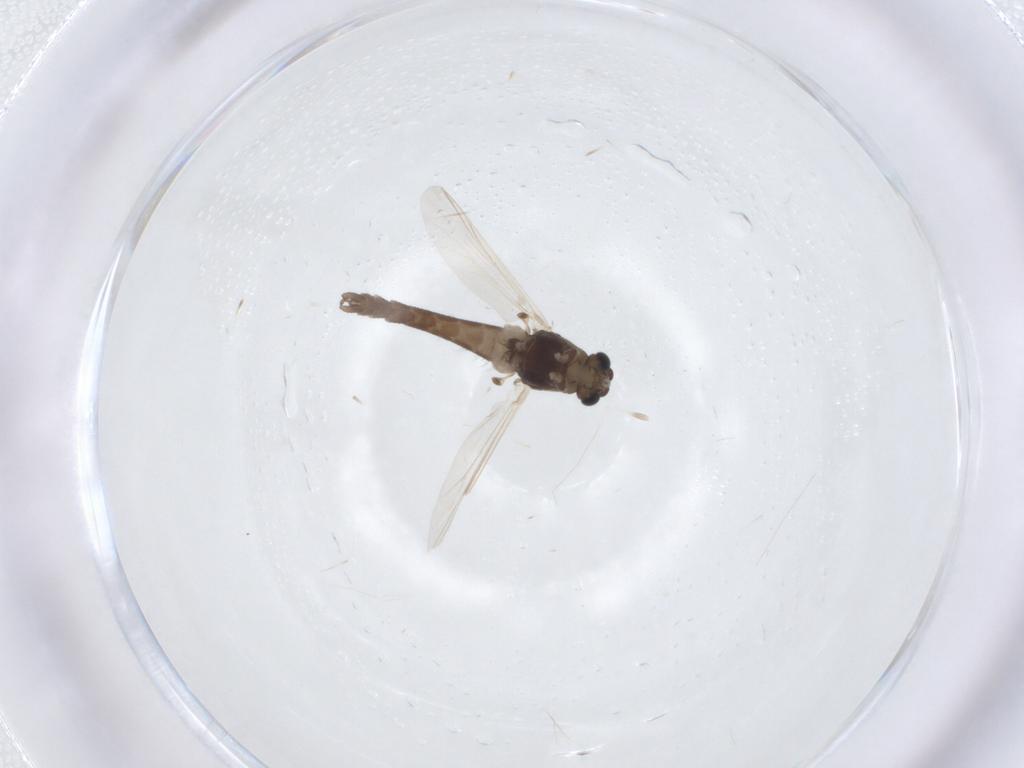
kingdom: Animalia
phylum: Arthropoda
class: Insecta
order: Diptera
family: Chironomidae
